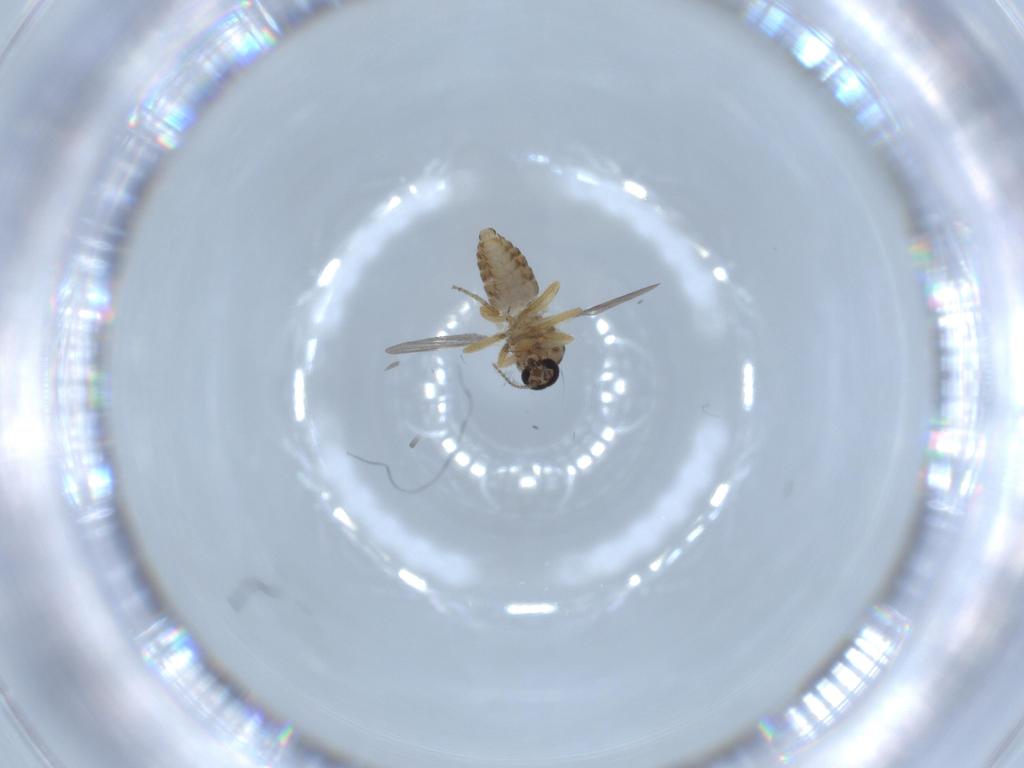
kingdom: Animalia
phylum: Arthropoda
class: Insecta
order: Diptera
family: Ceratopogonidae
